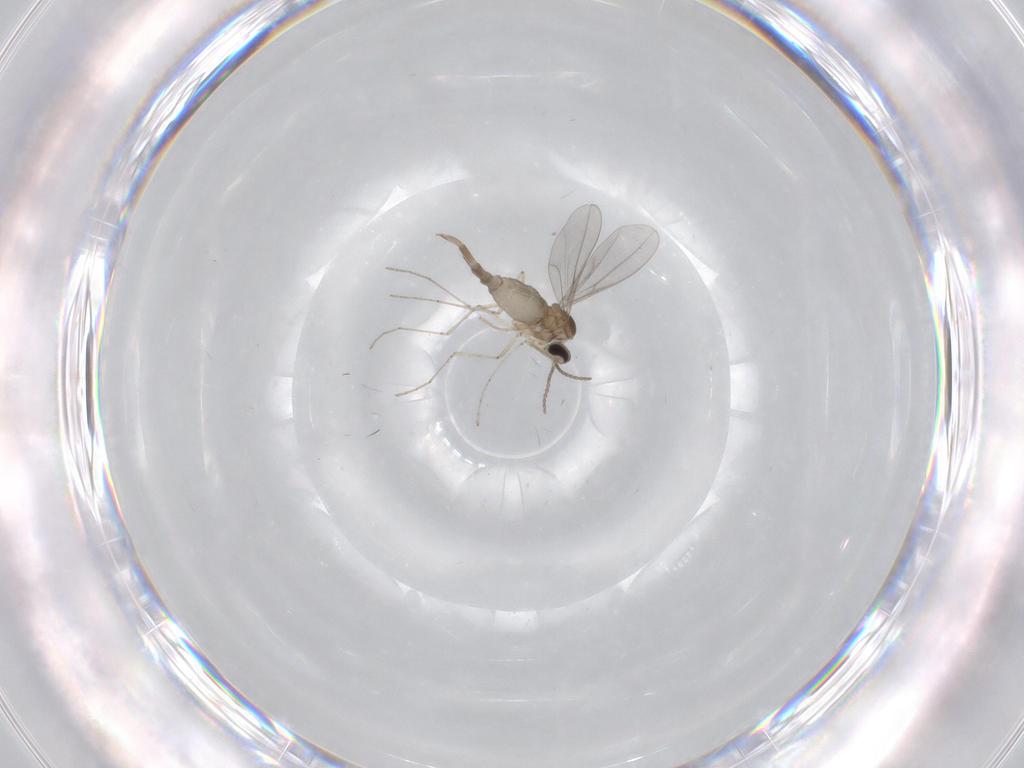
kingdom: Animalia
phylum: Arthropoda
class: Insecta
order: Diptera
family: Cecidomyiidae
